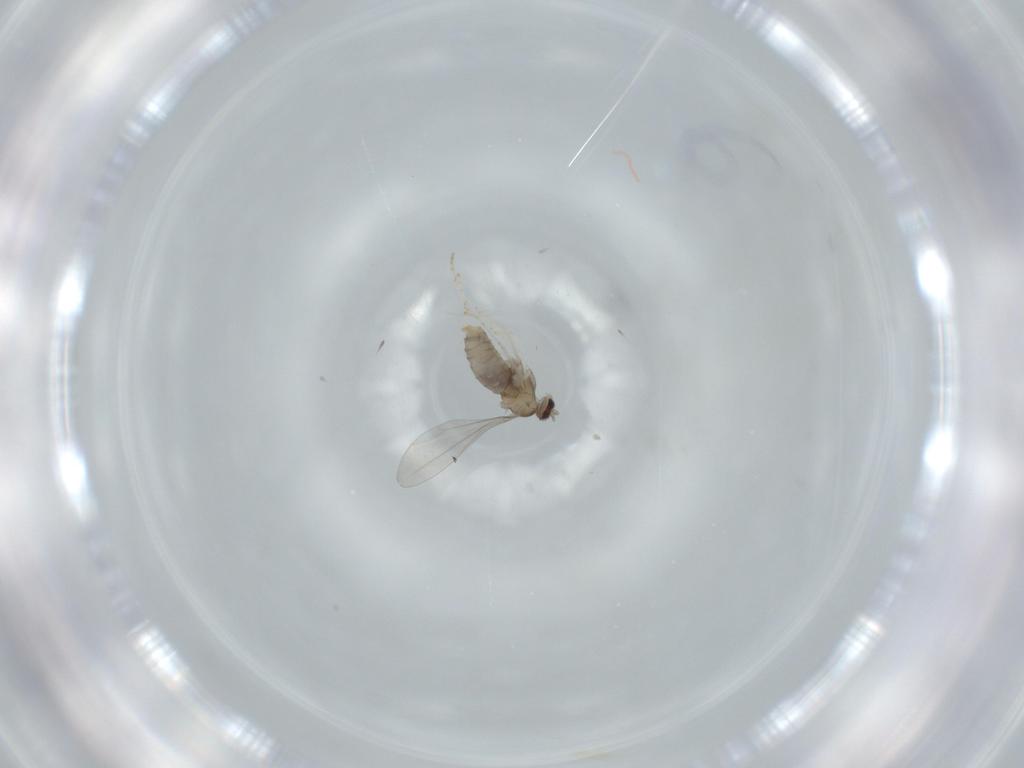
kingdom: Animalia
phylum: Arthropoda
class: Insecta
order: Diptera
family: Cecidomyiidae
